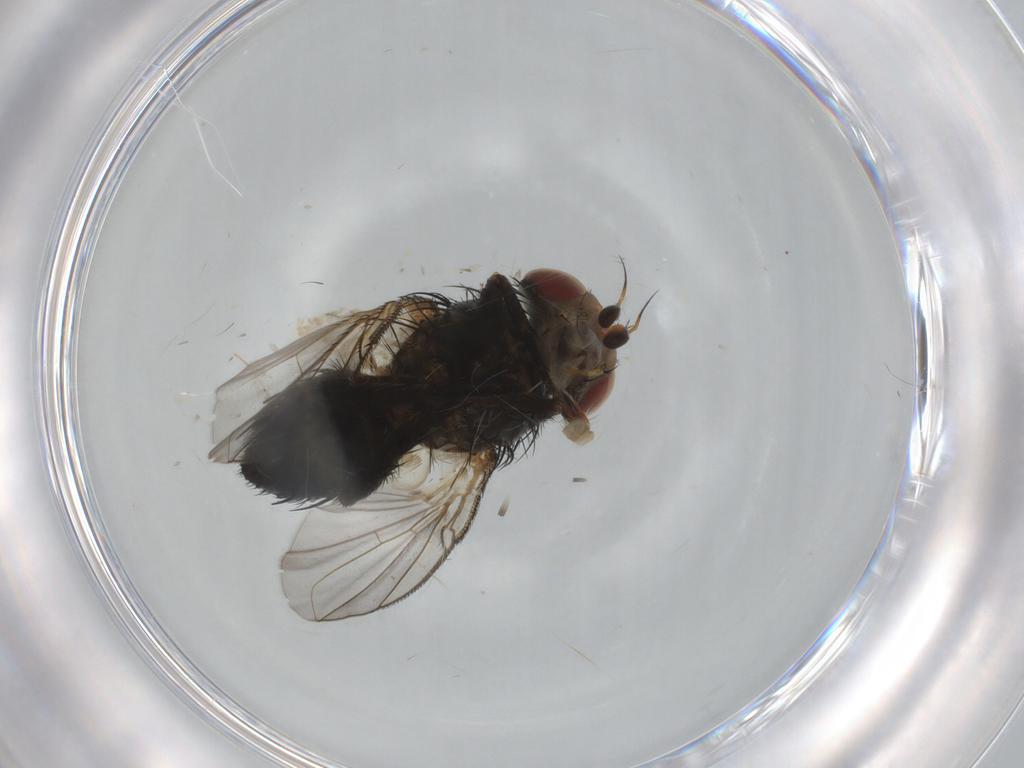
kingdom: Animalia
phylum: Arthropoda
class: Insecta
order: Diptera
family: Tachinidae
